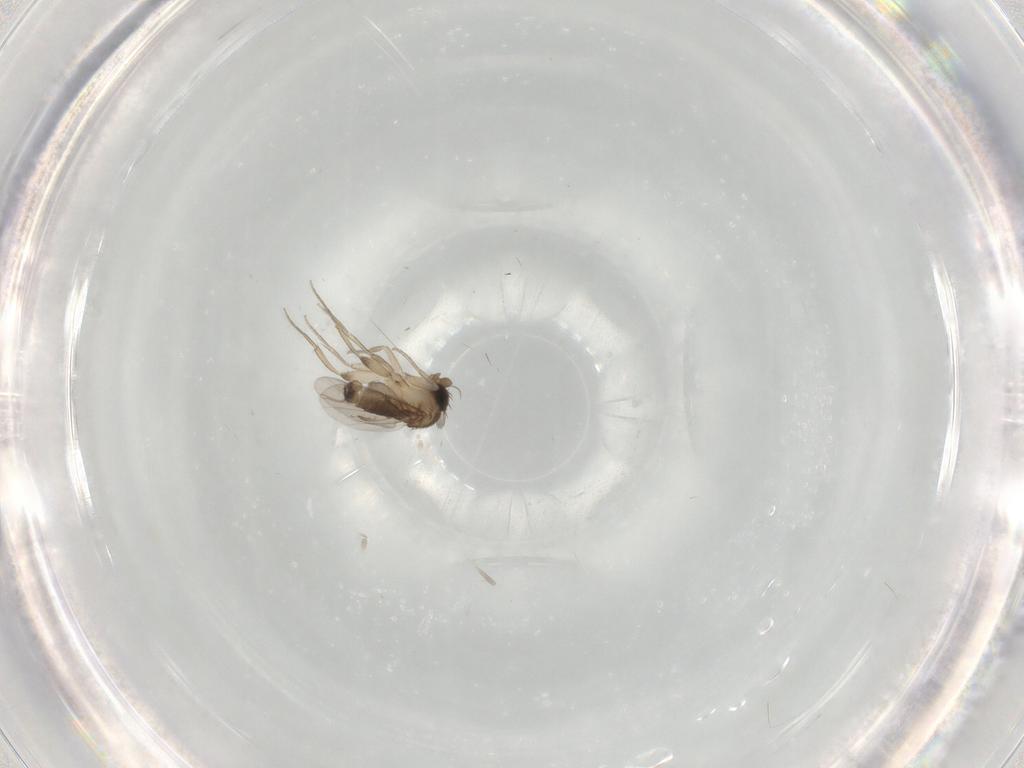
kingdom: Animalia
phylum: Arthropoda
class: Insecta
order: Diptera
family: Phoridae
